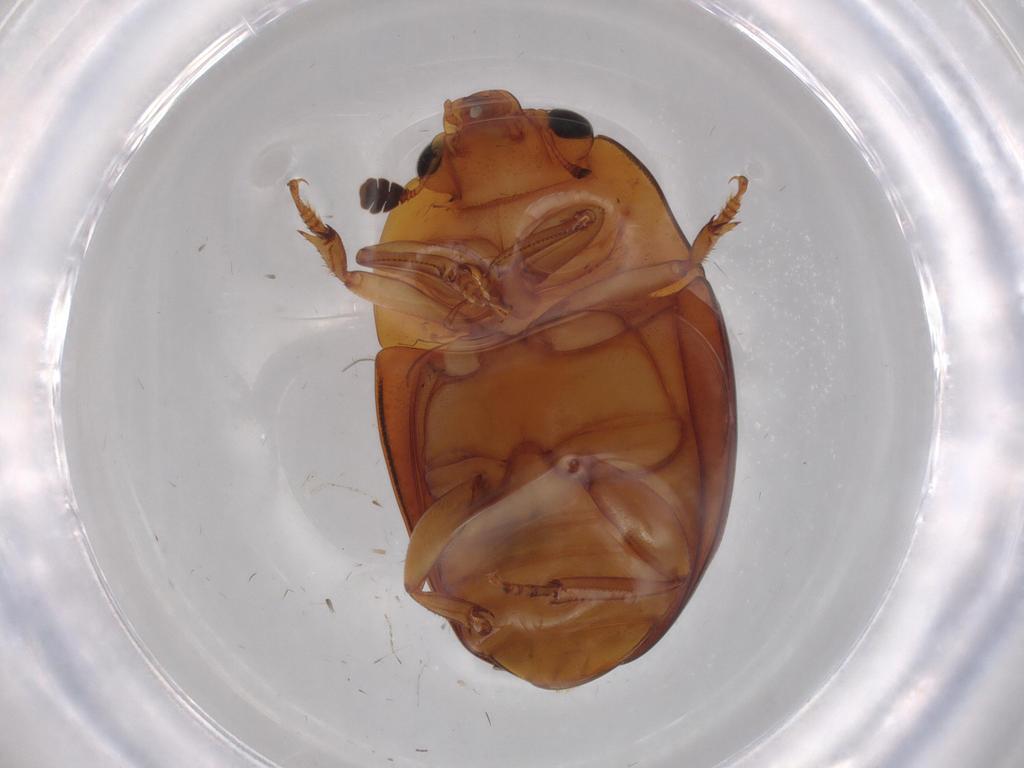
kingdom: Animalia
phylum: Arthropoda
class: Insecta
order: Coleoptera
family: Nitidulidae
